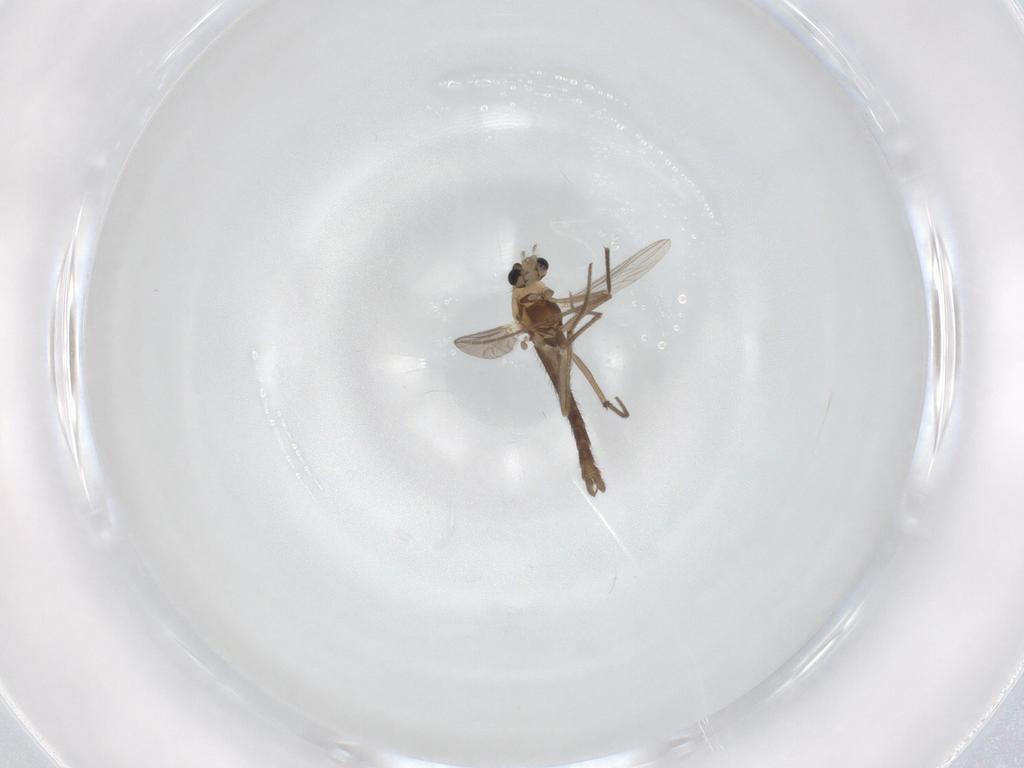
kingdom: Animalia
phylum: Arthropoda
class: Insecta
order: Diptera
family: Chironomidae
